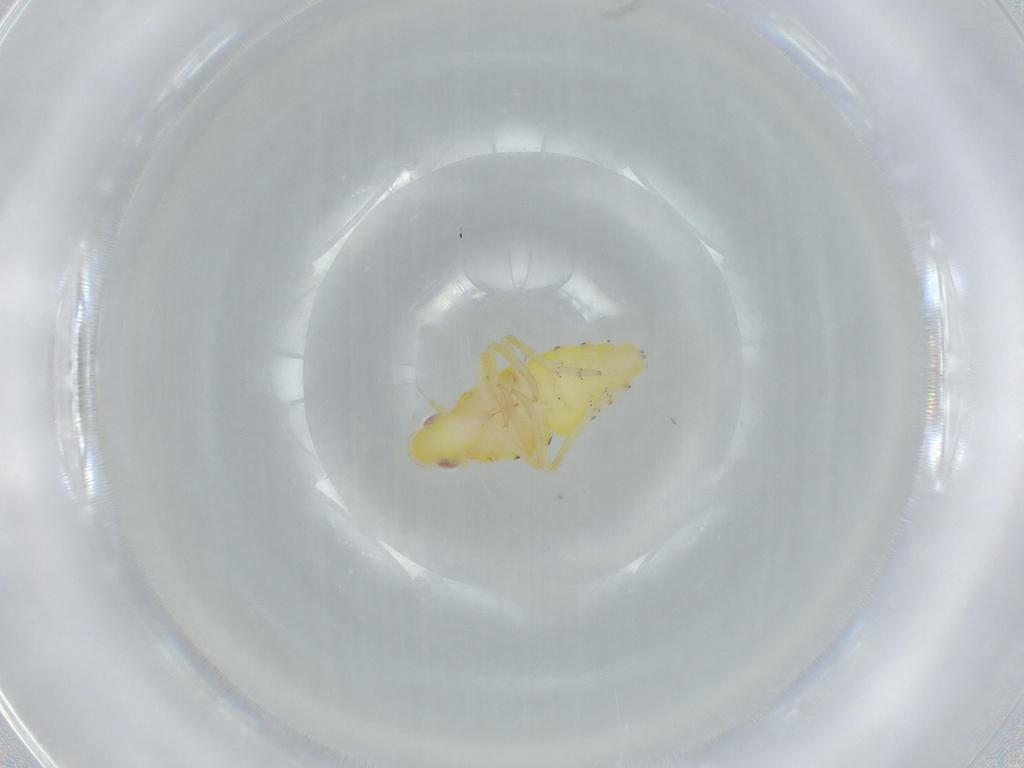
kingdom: Animalia
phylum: Arthropoda
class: Insecta
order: Hemiptera
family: Tropiduchidae
